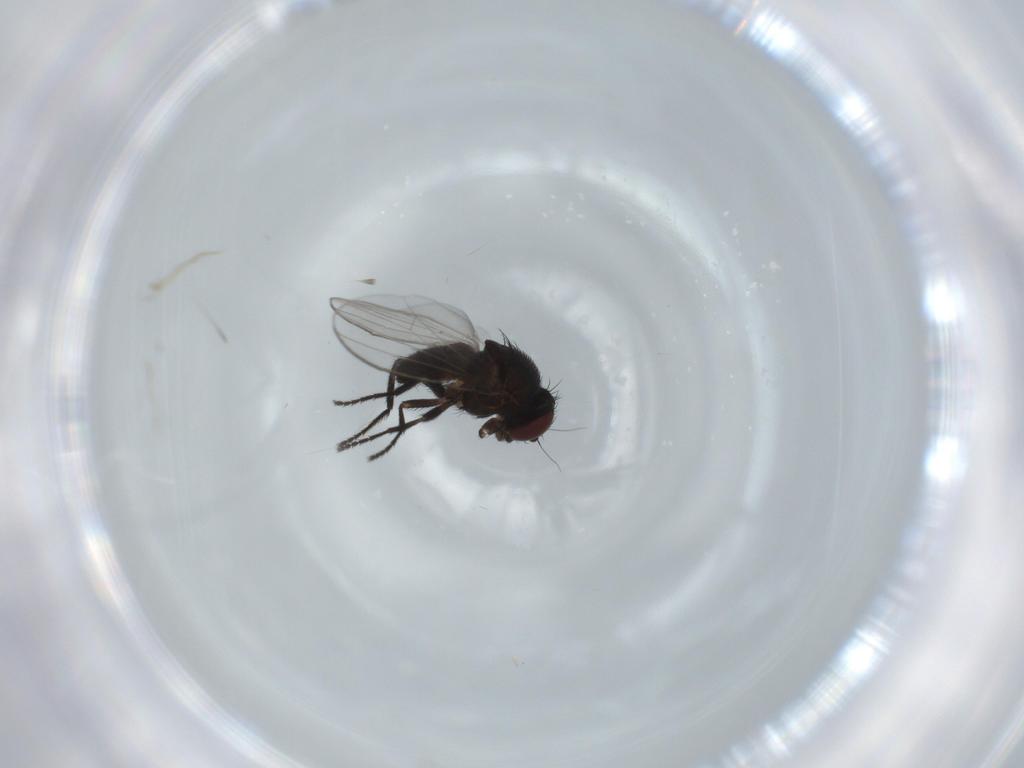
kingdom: Animalia
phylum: Arthropoda
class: Insecta
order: Diptera
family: Milichiidae
